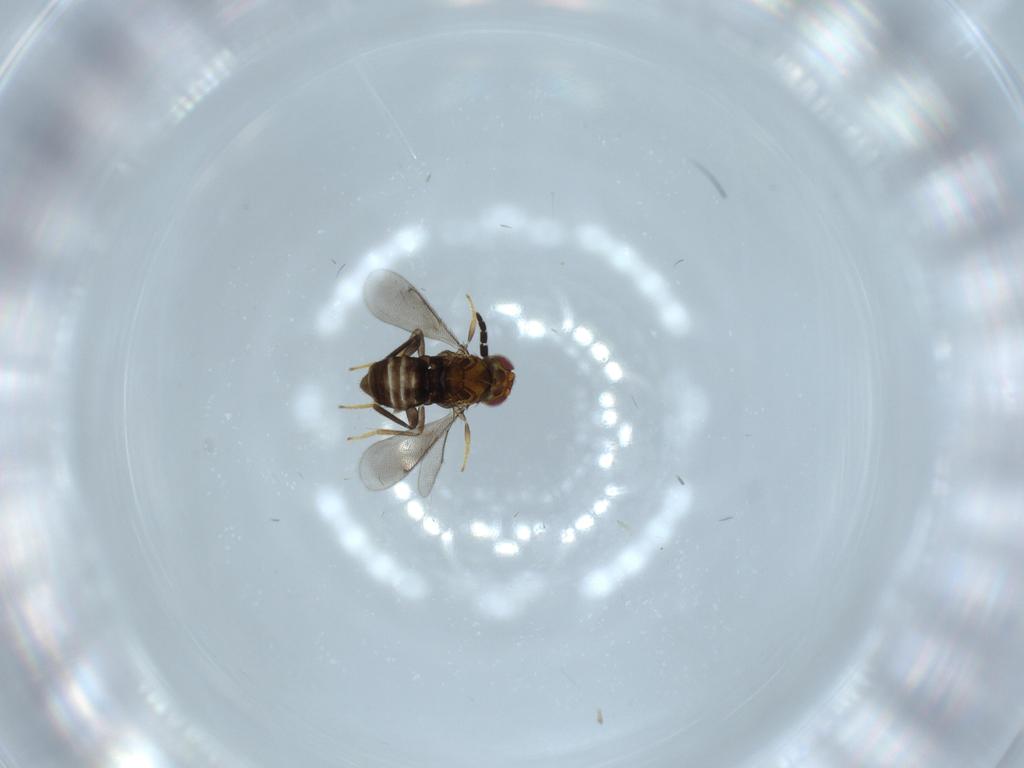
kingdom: Animalia
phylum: Arthropoda
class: Insecta
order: Hymenoptera
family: Aphelinidae
